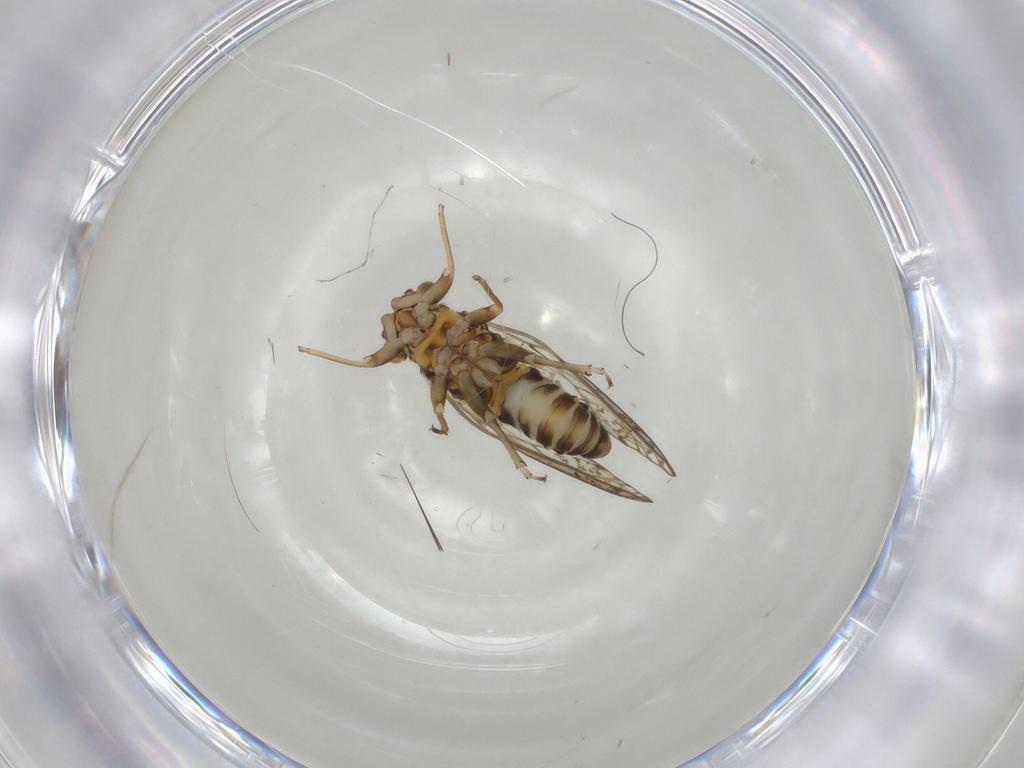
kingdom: Animalia
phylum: Arthropoda
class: Insecta
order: Hemiptera
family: Psyllidae
